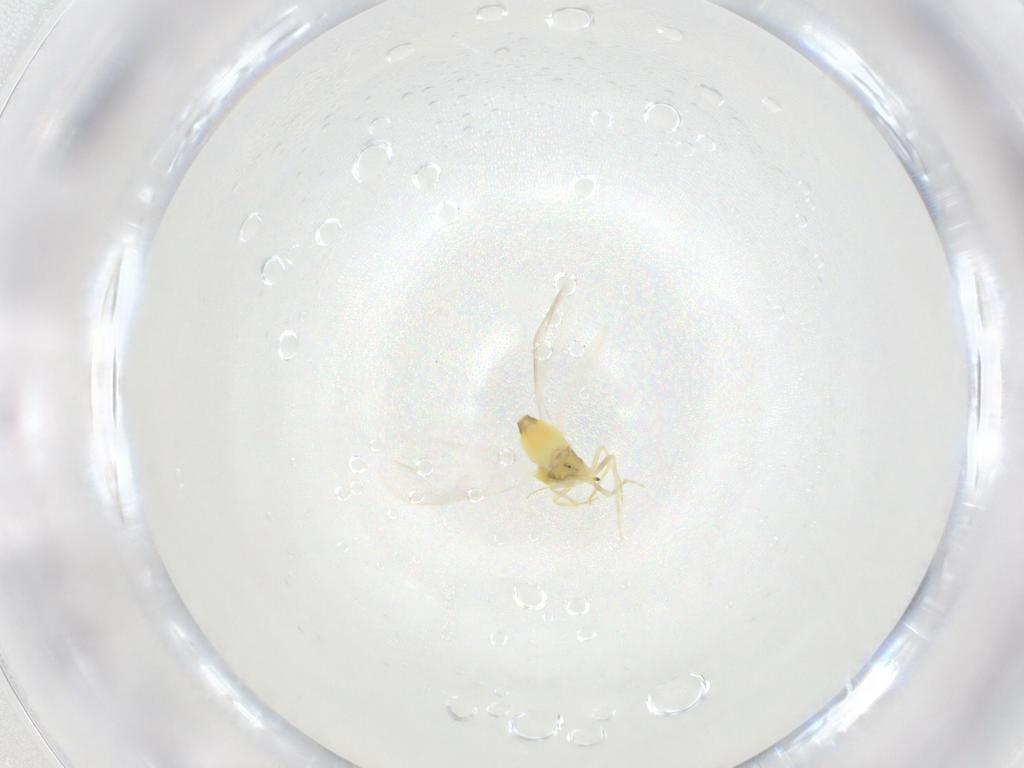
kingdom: Animalia
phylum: Arthropoda
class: Insecta
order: Hemiptera
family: Aleyrodidae
